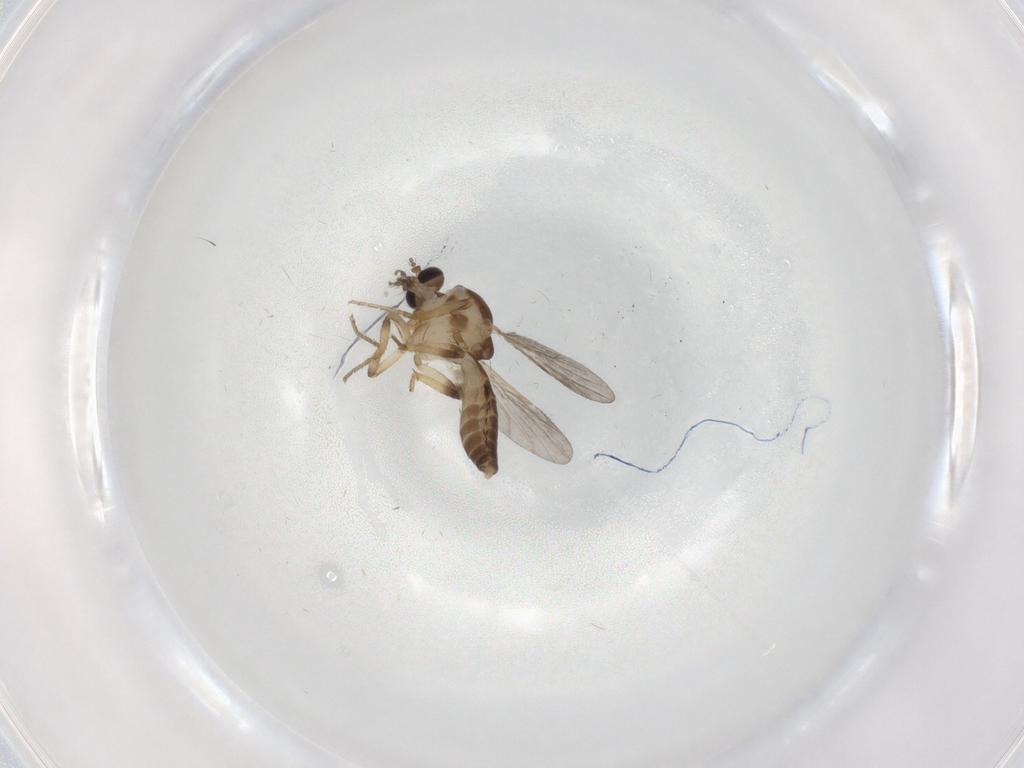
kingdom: Animalia
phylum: Arthropoda
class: Insecta
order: Diptera
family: Ceratopogonidae
